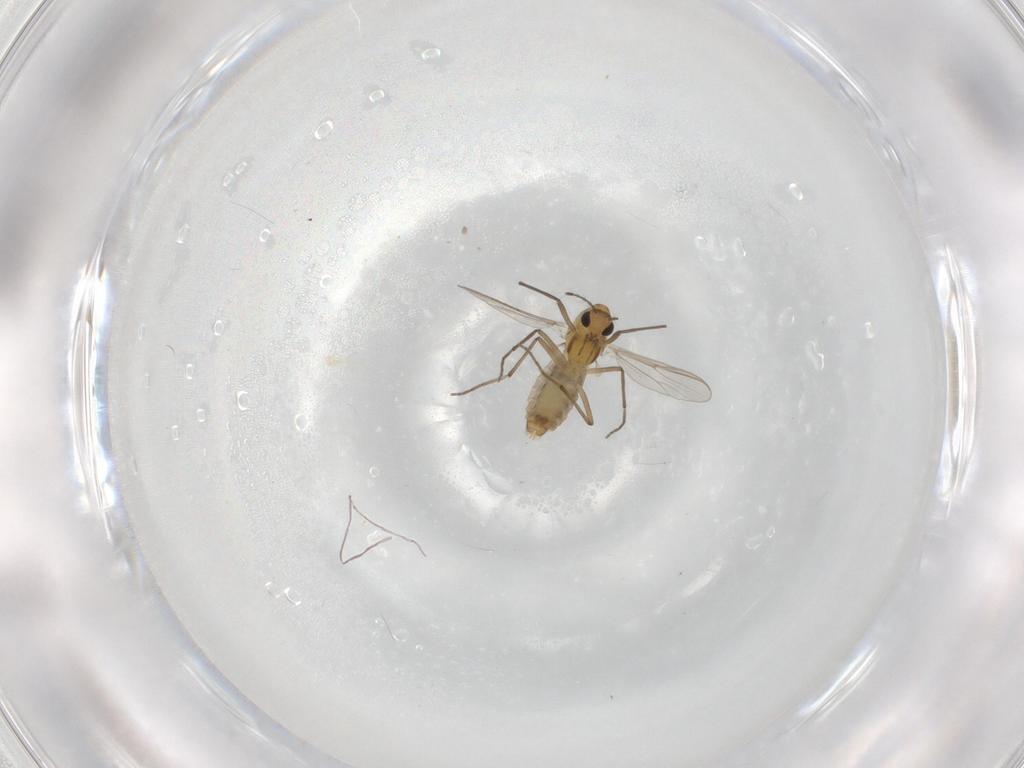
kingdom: Animalia
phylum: Arthropoda
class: Insecta
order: Diptera
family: Chironomidae
